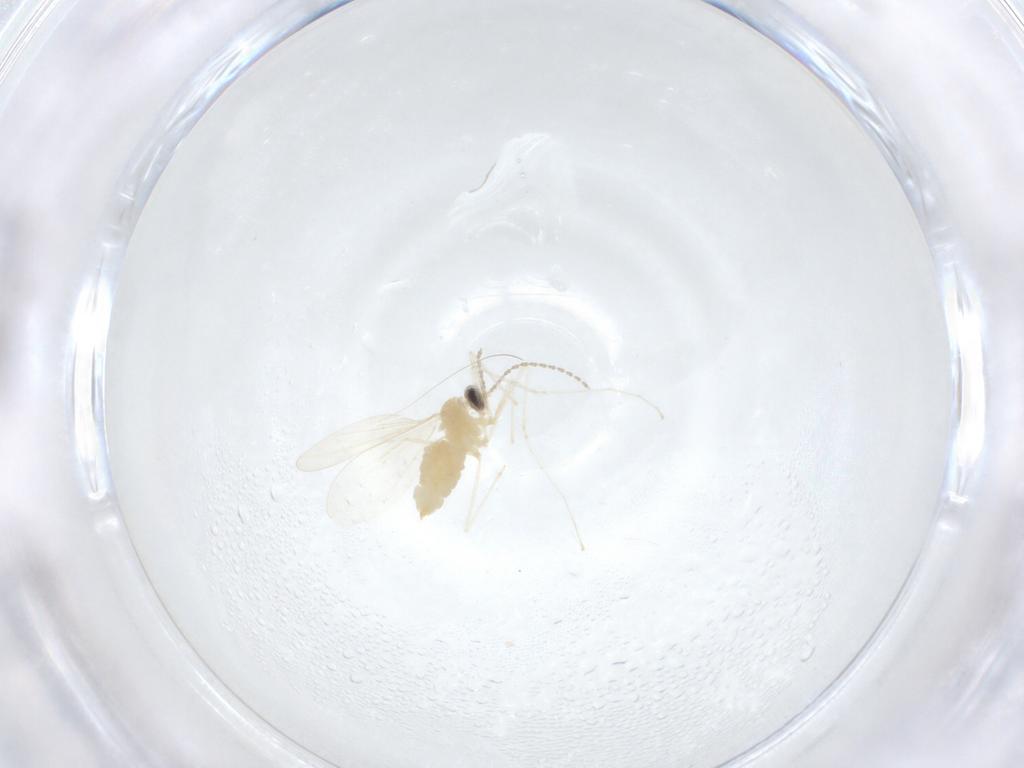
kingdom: Animalia
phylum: Arthropoda
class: Insecta
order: Diptera
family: Cecidomyiidae
